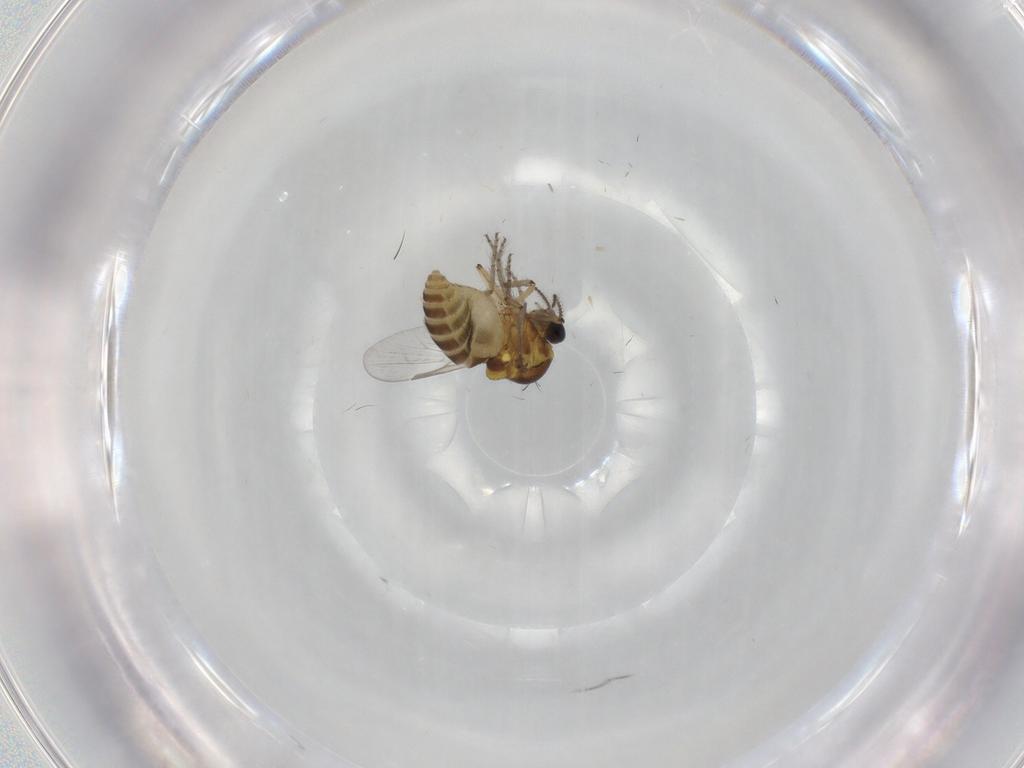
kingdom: Animalia
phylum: Arthropoda
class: Insecta
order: Diptera
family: Ceratopogonidae
